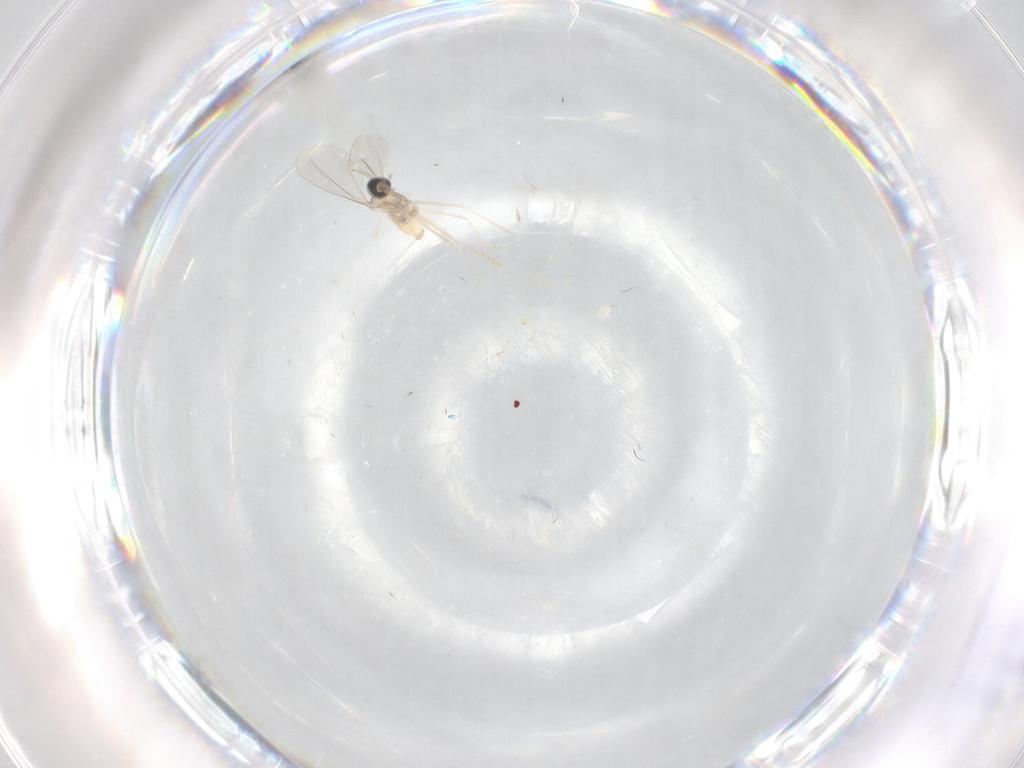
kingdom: Animalia
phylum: Arthropoda
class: Insecta
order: Diptera
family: Cecidomyiidae
